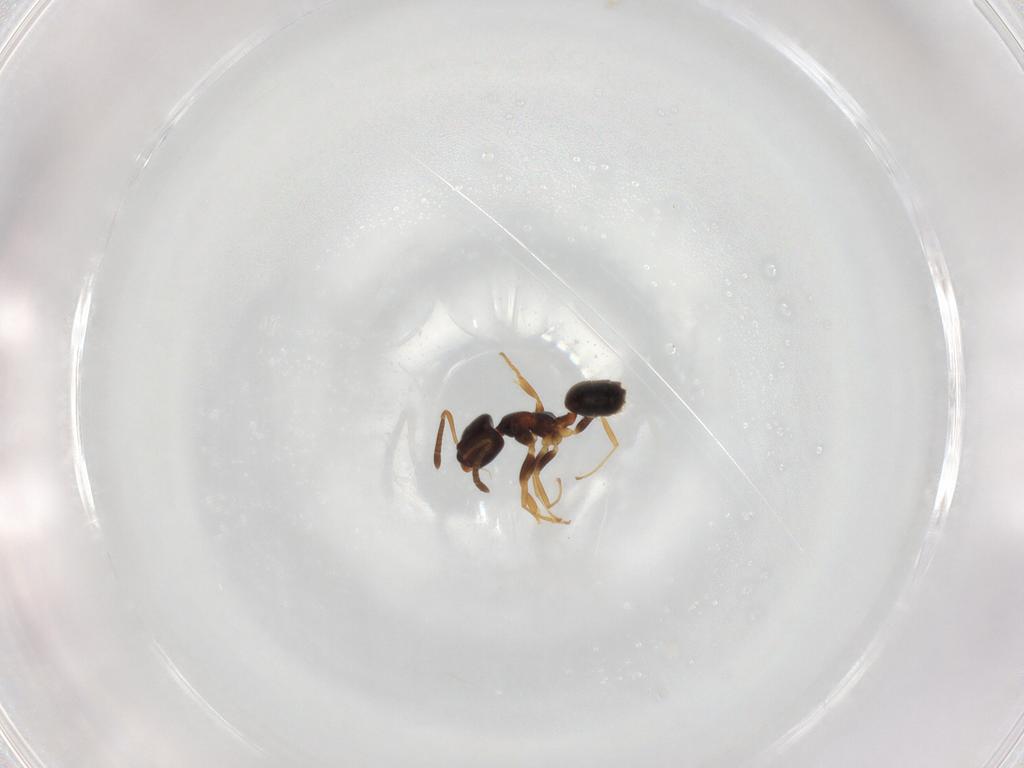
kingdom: Animalia
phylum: Arthropoda
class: Insecta
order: Hymenoptera
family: Formicidae
